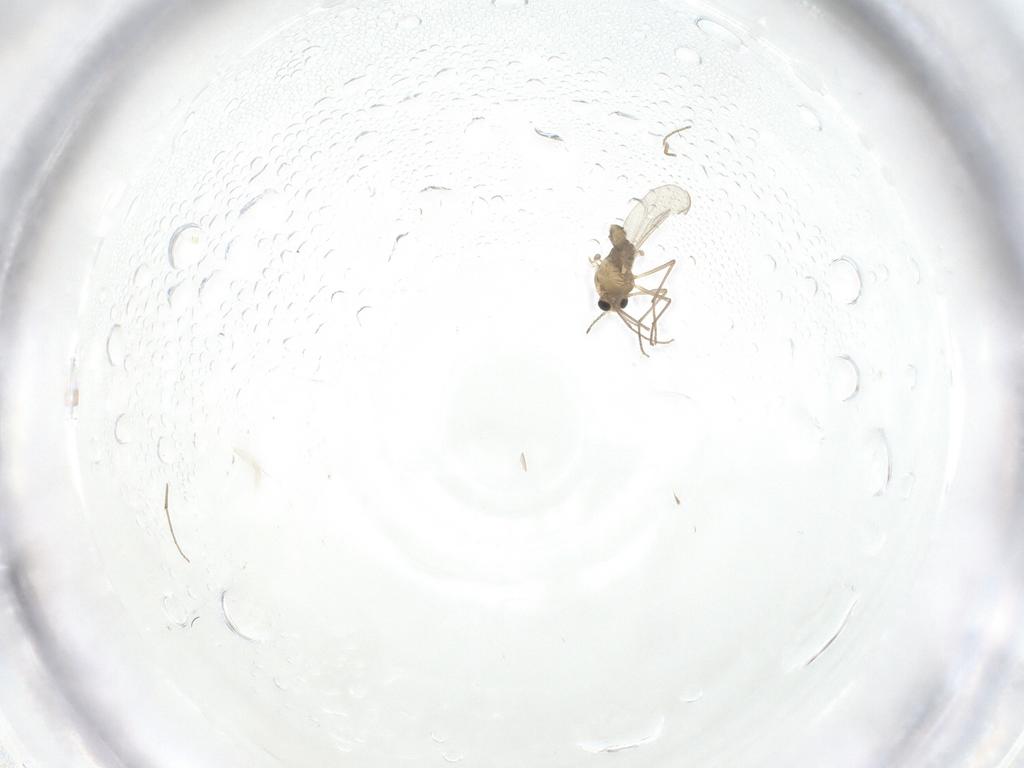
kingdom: Animalia
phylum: Arthropoda
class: Insecta
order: Diptera
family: Chironomidae
